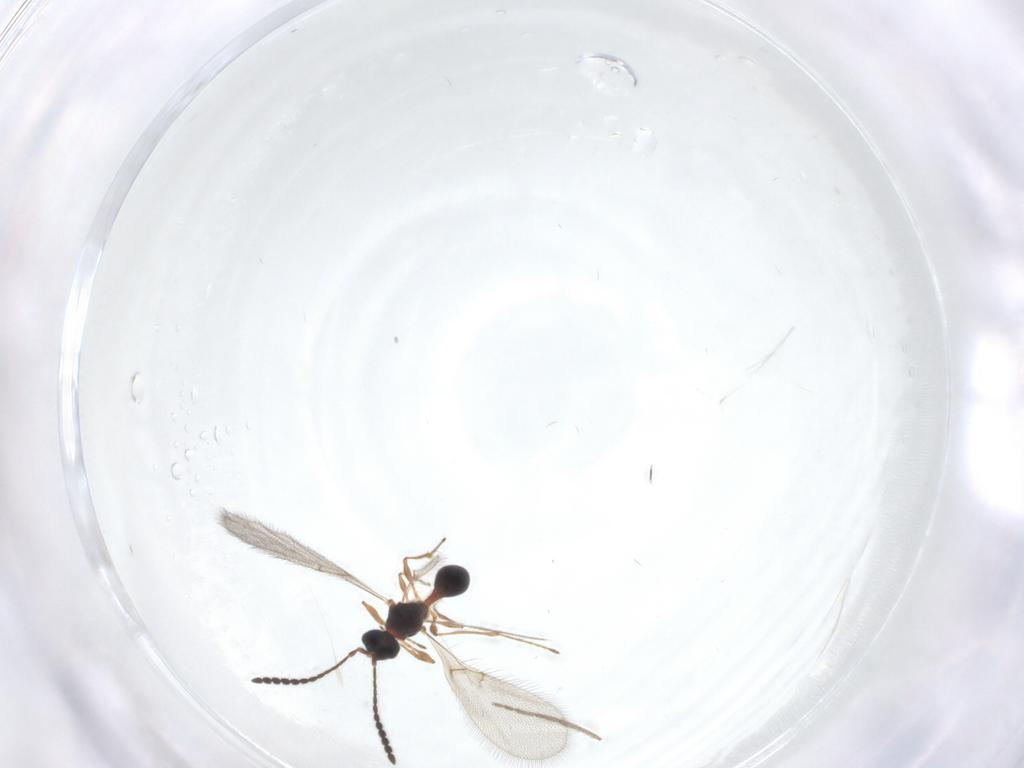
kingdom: Animalia
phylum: Arthropoda
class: Insecta
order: Hymenoptera
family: Diapriidae
